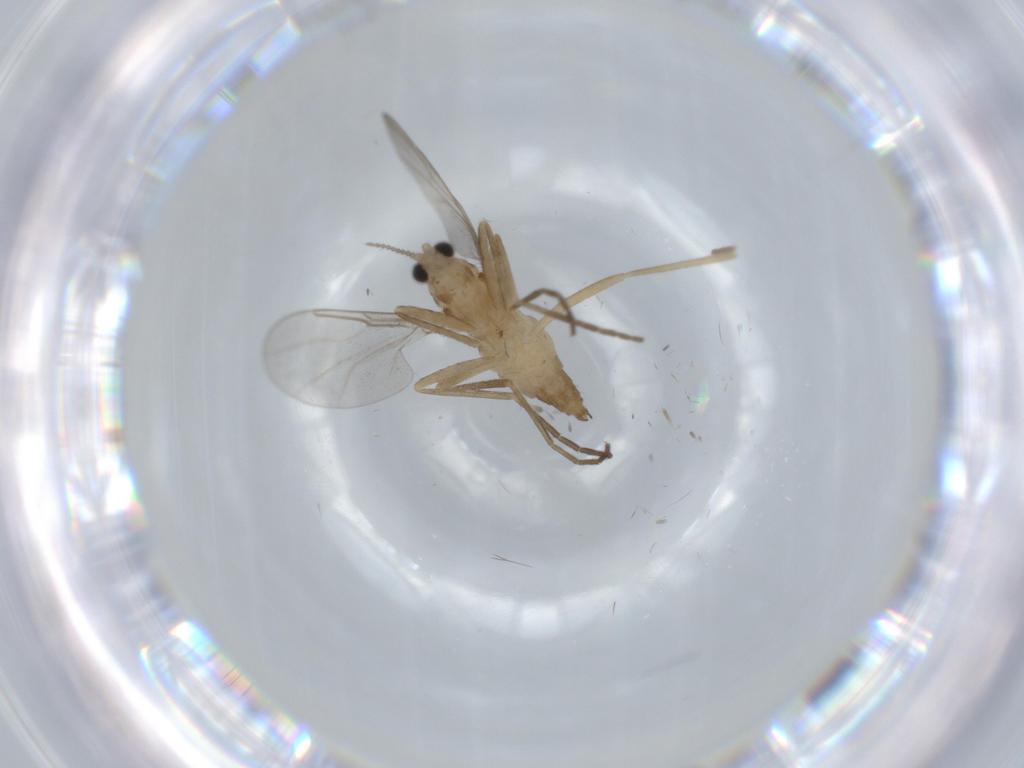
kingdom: Animalia
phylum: Arthropoda
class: Insecta
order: Diptera
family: Cecidomyiidae
